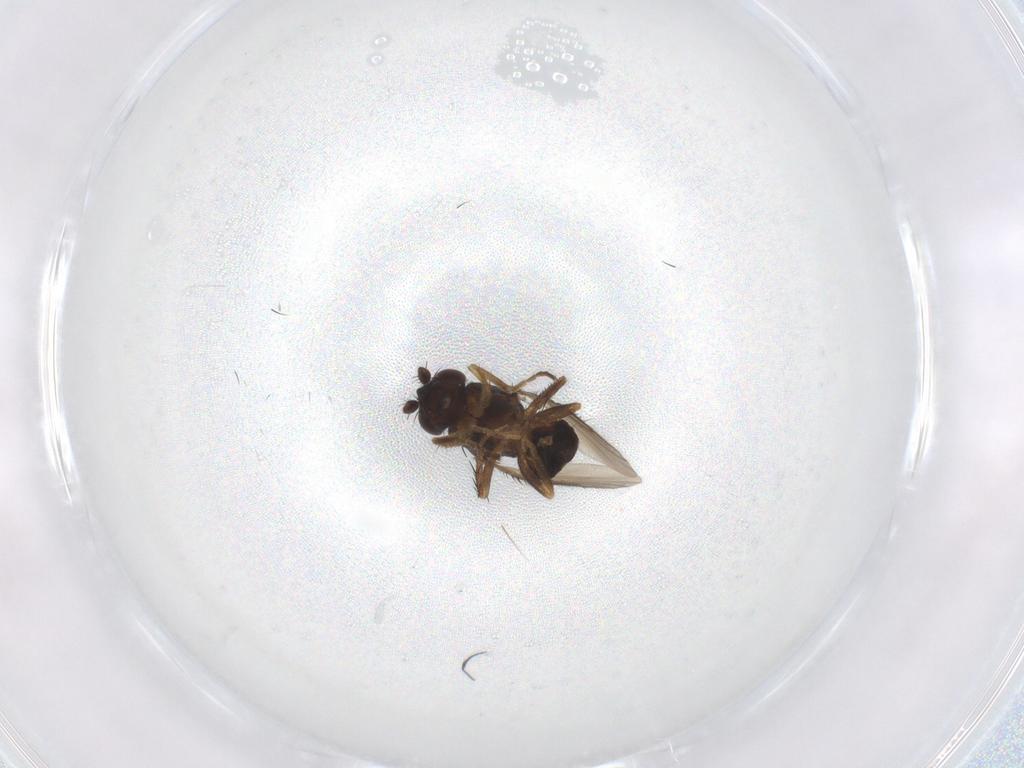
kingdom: Animalia
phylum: Arthropoda
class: Insecta
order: Diptera
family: Sphaeroceridae
